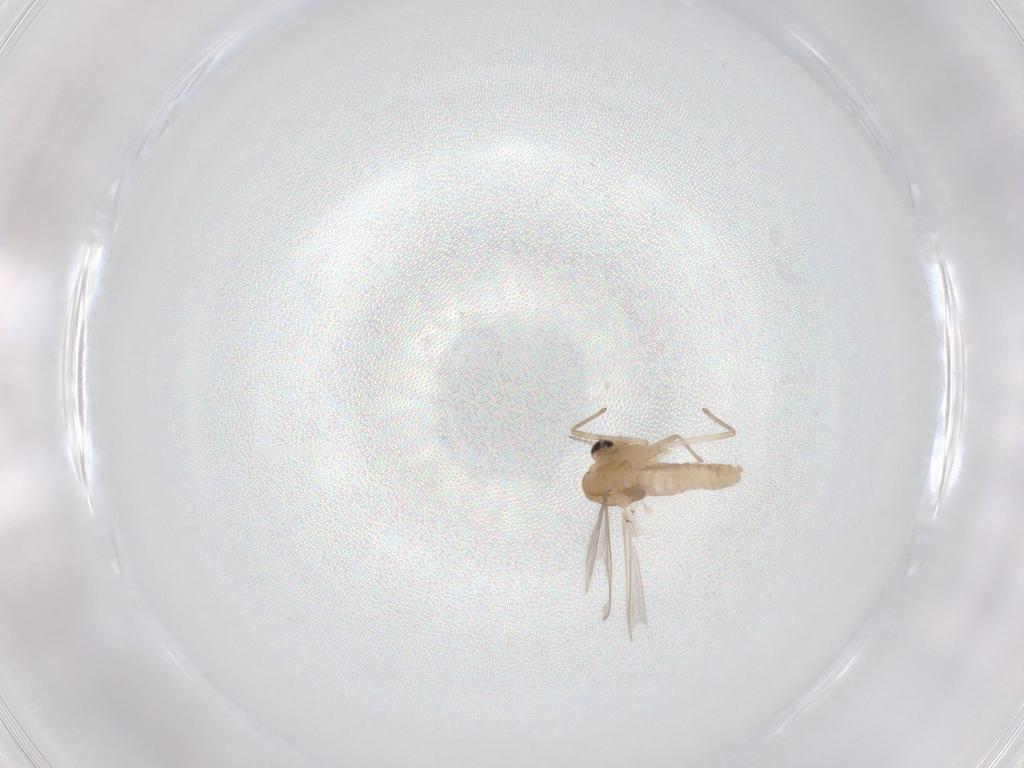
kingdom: Animalia
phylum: Arthropoda
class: Insecta
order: Diptera
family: Chironomidae
